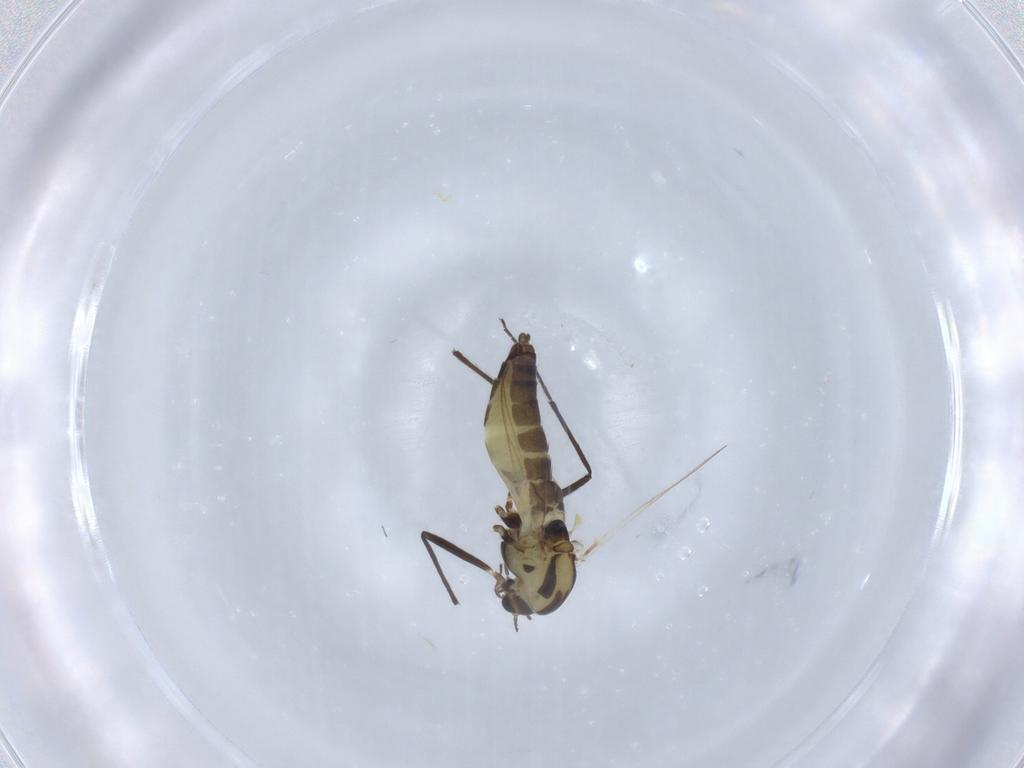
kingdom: Animalia
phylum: Arthropoda
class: Insecta
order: Diptera
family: Chironomidae
